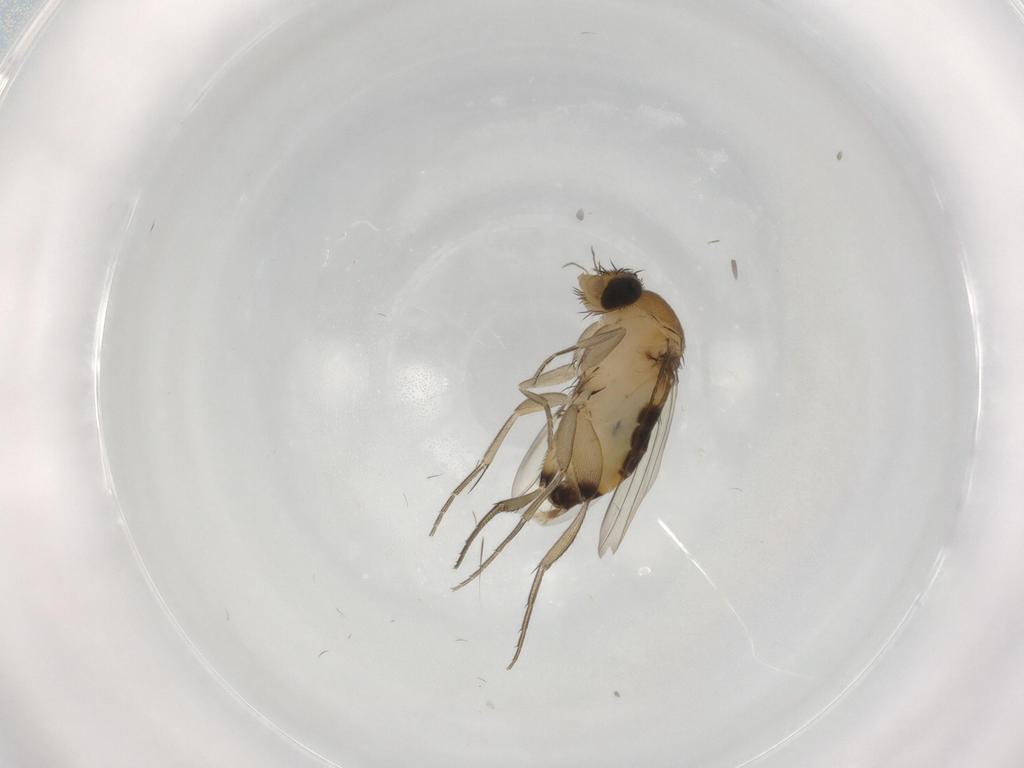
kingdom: Animalia
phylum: Arthropoda
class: Insecta
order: Diptera
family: Phoridae
